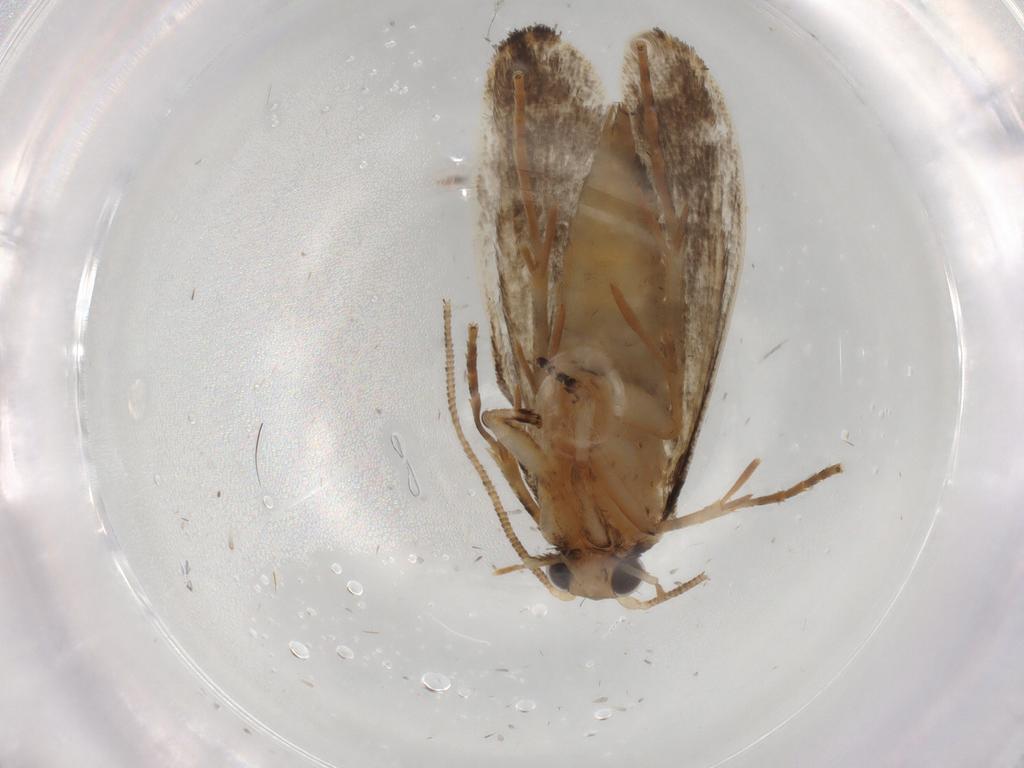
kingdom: Animalia
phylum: Arthropoda
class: Insecta
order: Lepidoptera
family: Tineidae
